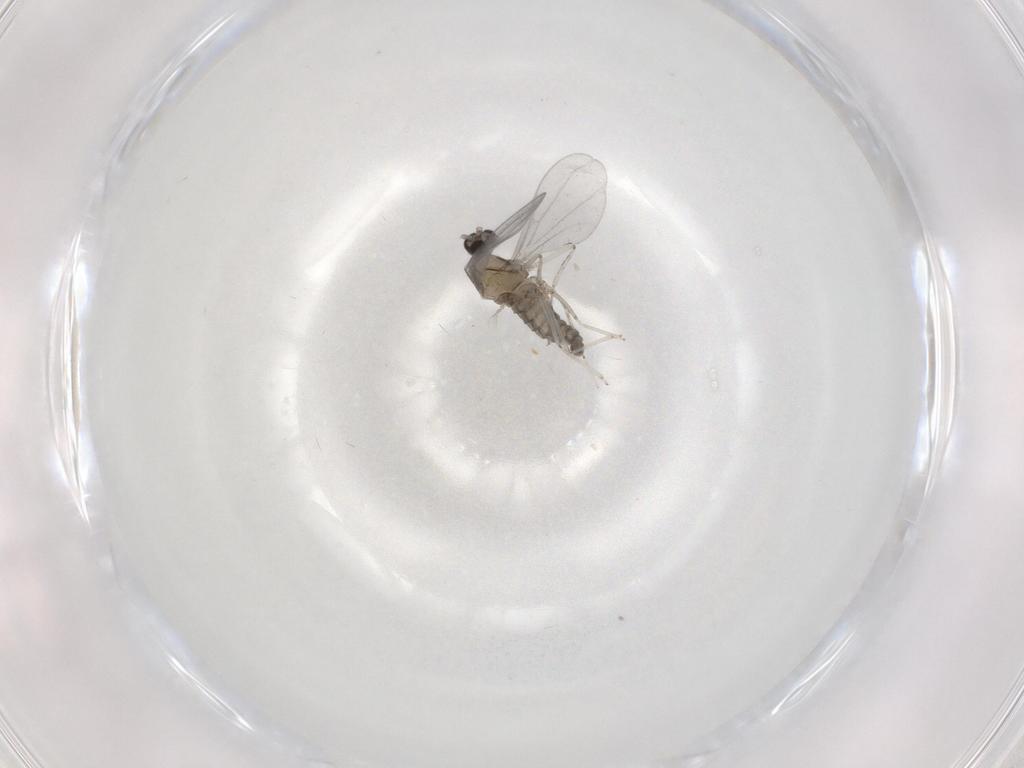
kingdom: Animalia
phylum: Arthropoda
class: Insecta
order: Diptera
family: Cecidomyiidae
